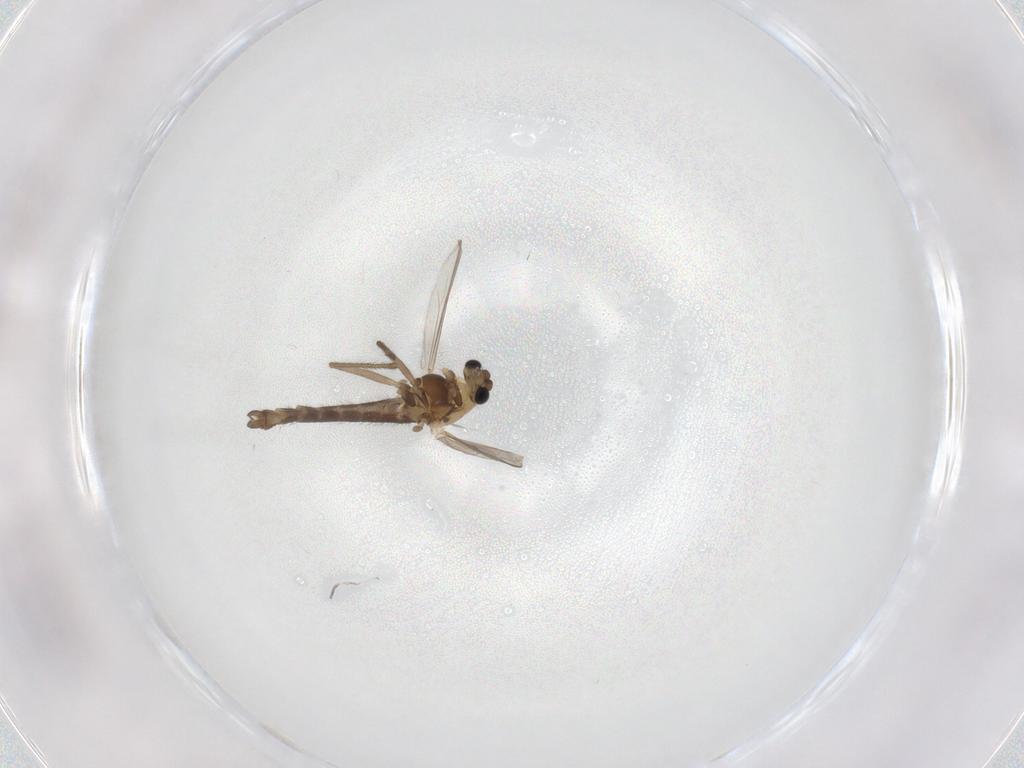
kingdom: Animalia
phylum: Arthropoda
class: Insecta
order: Diptera
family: Chironomidae
